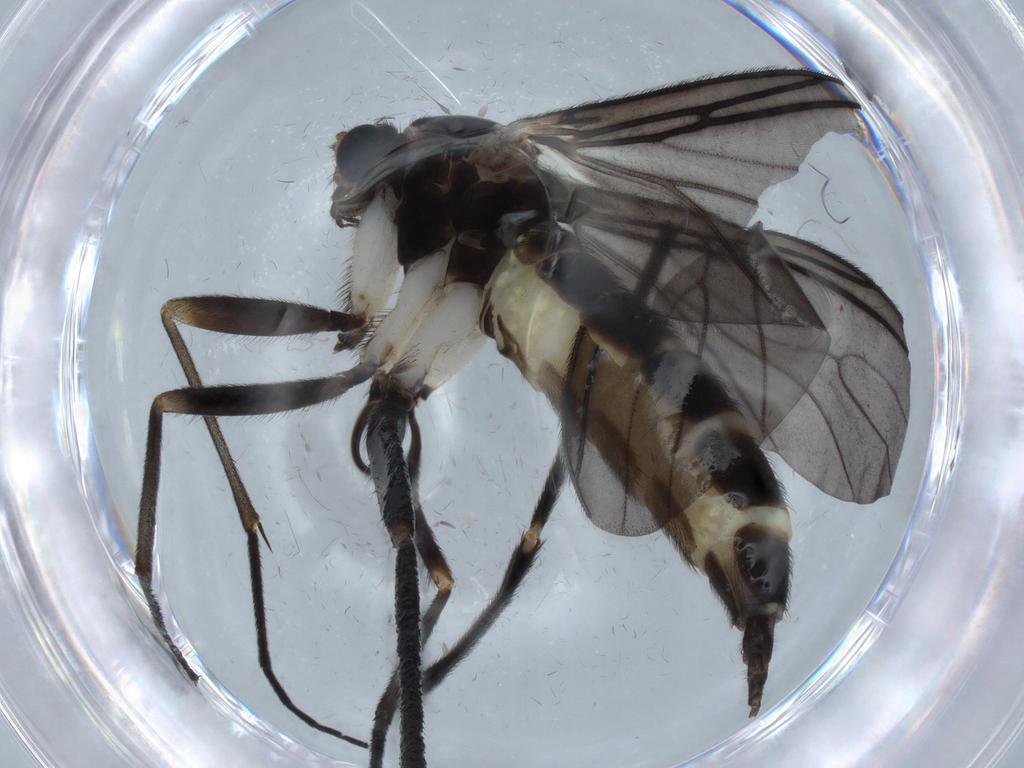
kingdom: Animalia
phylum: Arthropoda
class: Insecta
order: Diptera
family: Sciaridae
